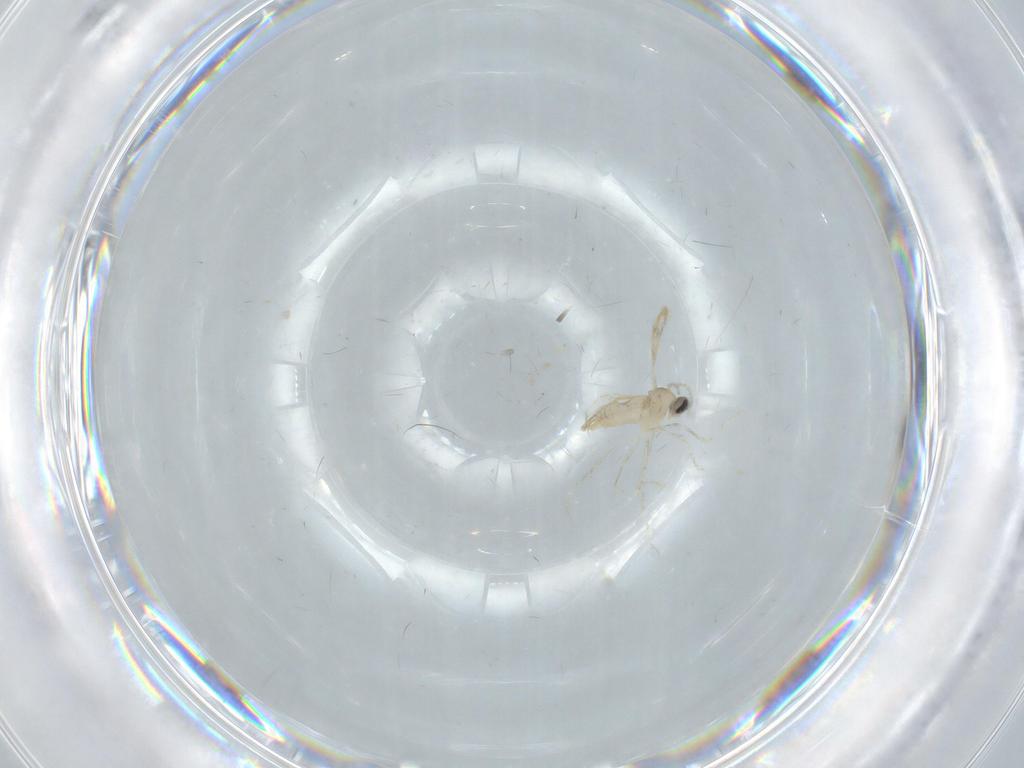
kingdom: Animalia
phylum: Arthropoda
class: Insecta
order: Diptera
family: Cecidomyiidae
